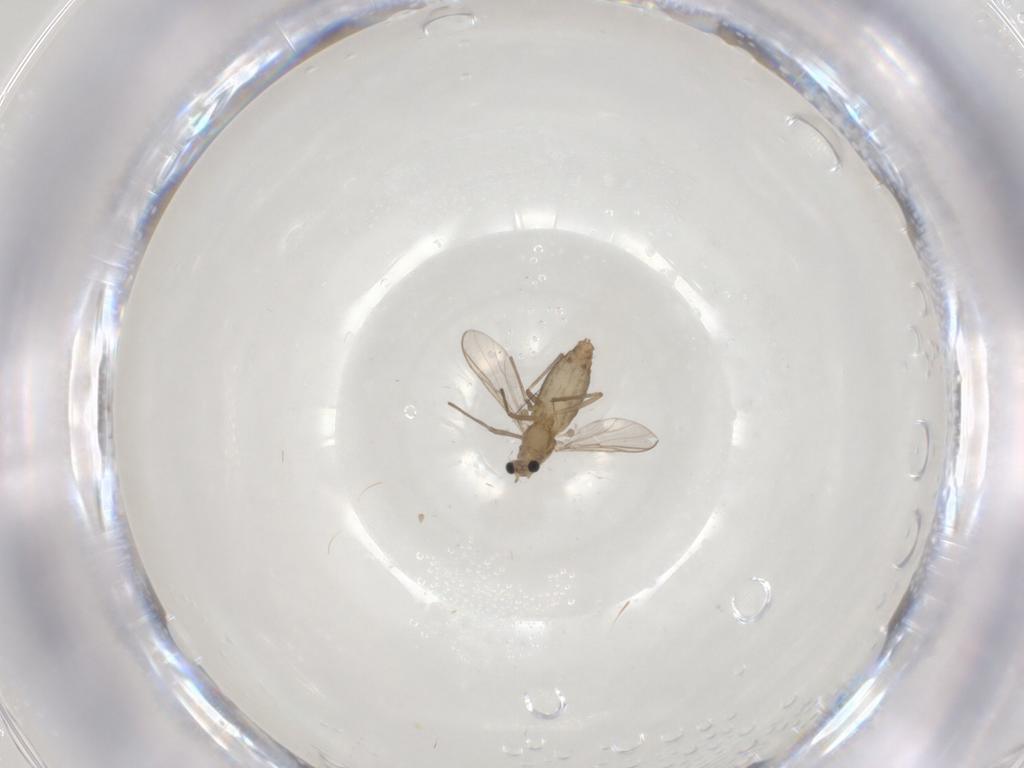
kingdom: Animalia
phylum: Arthropoda
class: Insecta
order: Diptera
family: Chironomidae
